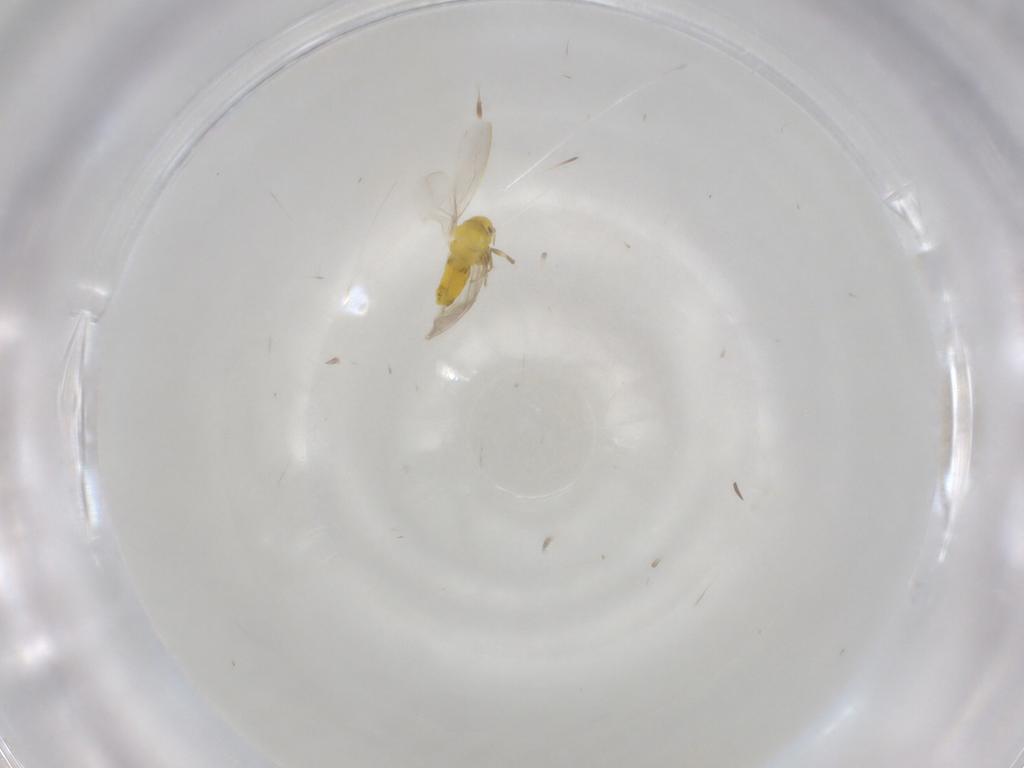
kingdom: Animalia
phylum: Arthropoda
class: Insecta
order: Hemiptera
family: Aleyrodidae
